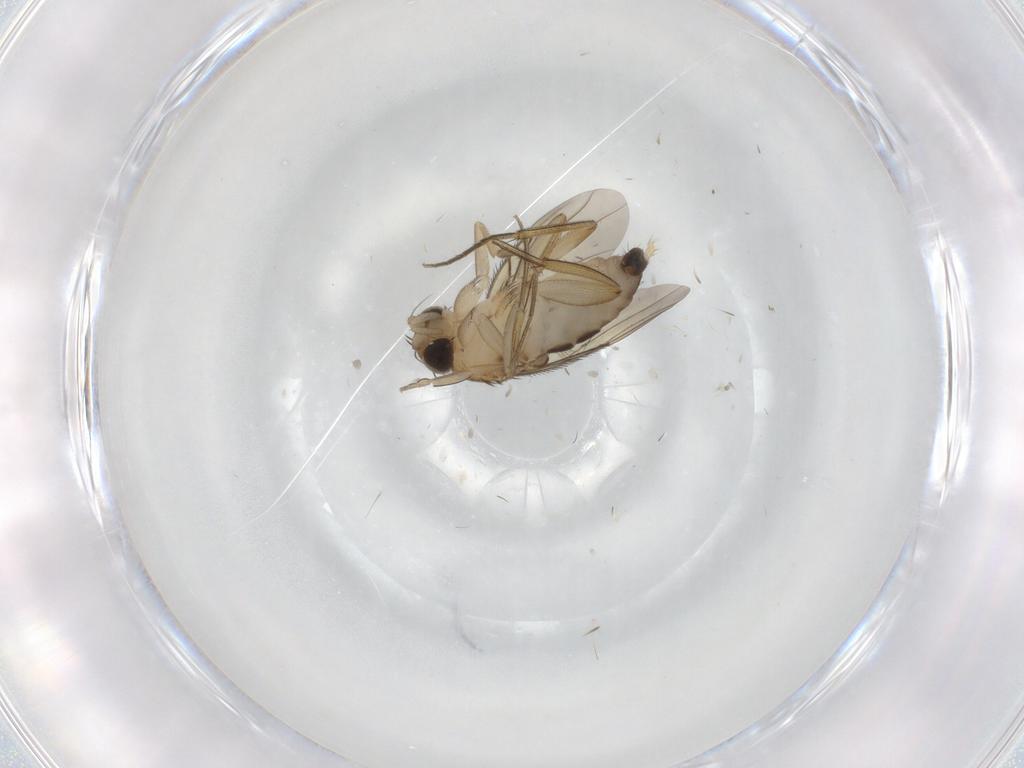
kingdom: Animalia
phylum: Arthropoda
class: Insecta
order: Diptera
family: Phoridae
